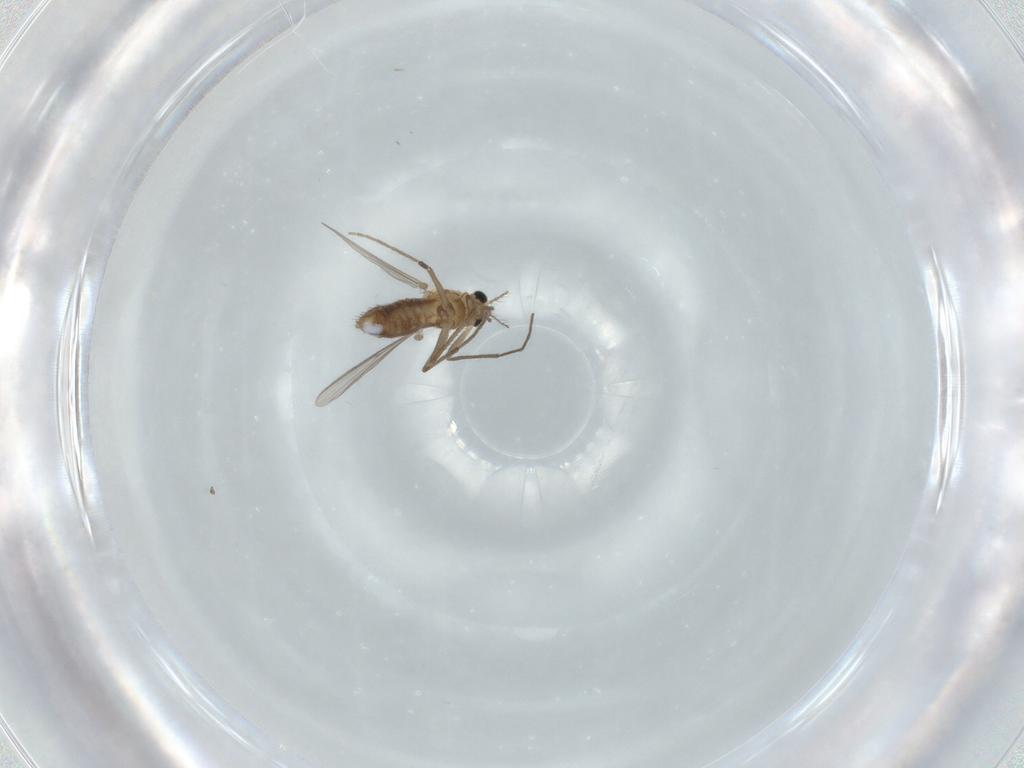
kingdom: Animalia
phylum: Arthropoda
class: Insecta
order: Diptera
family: Chironomidae
